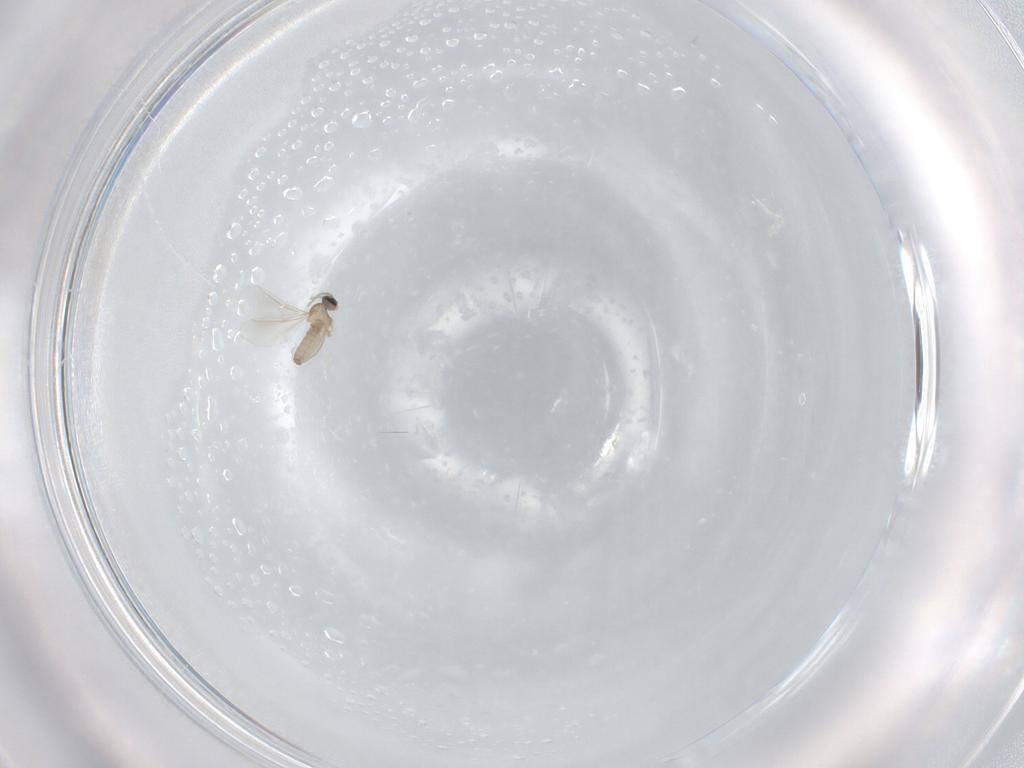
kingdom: Animalia
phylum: Arthropoda
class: Insecta
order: Diptera
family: Cecidomyiidae
